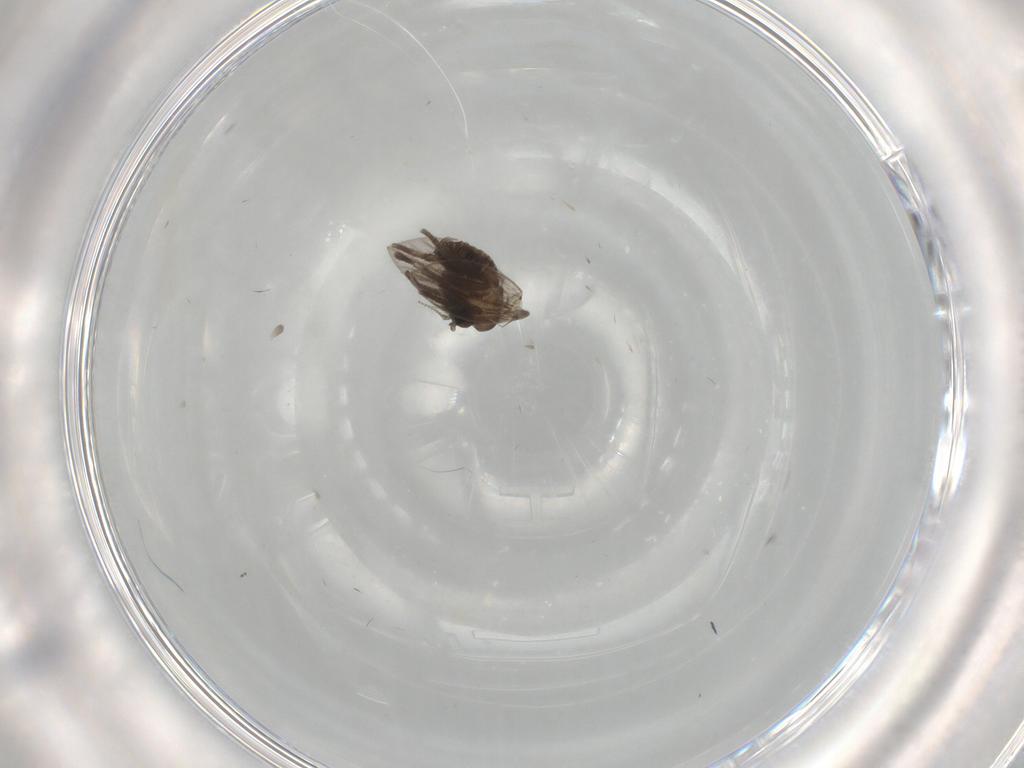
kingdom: Animalia
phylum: Arthropoda
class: Insecta
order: Diptera
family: Psychodidae
